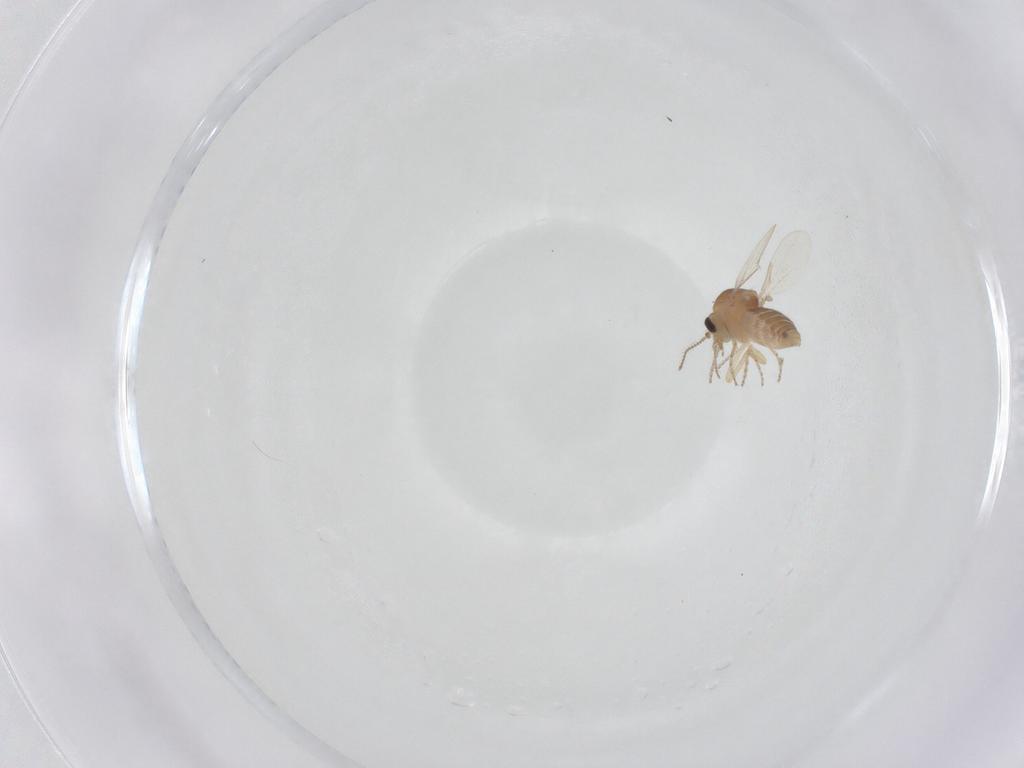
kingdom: Animalia
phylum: Arthropoda
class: Insecta
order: Diptera
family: Ceratopogonidae
